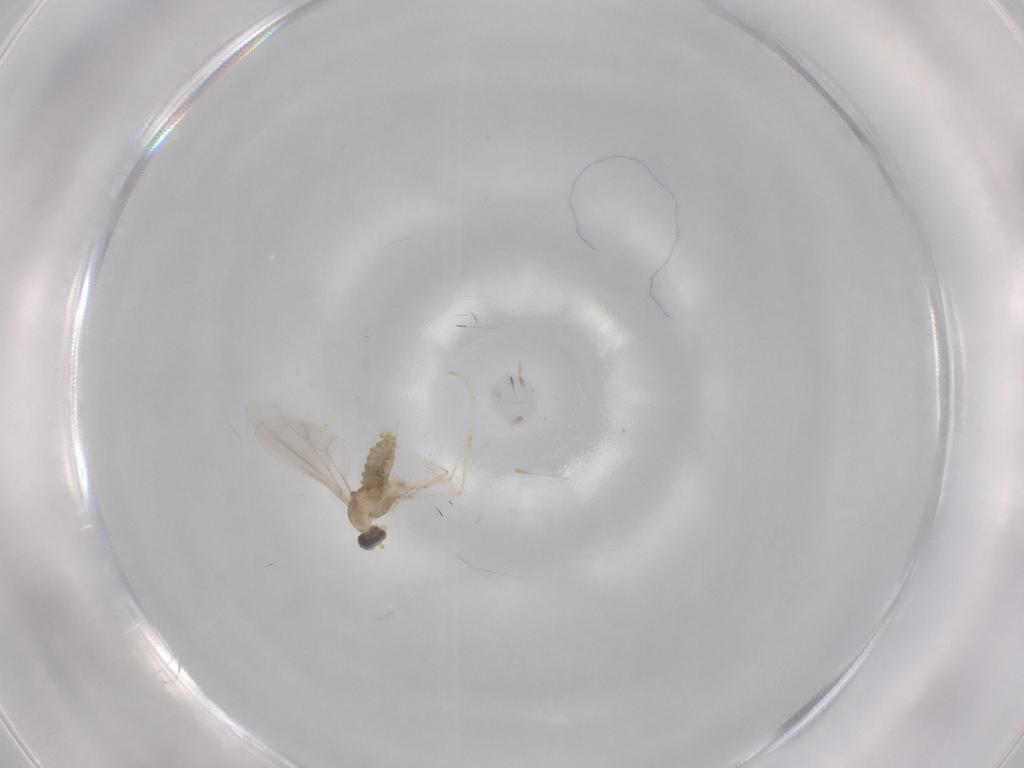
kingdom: Animalia
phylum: Arthropoda
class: Insecta
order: Diptera
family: Cecidomyiidae
